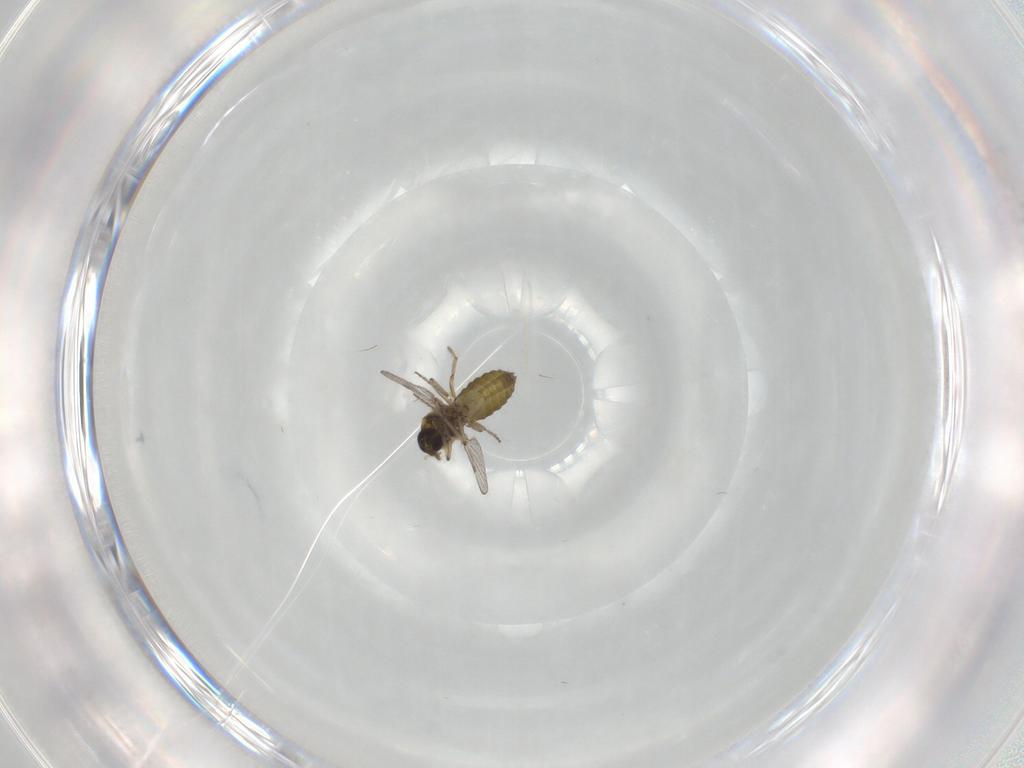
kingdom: Animalia
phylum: Arthropoda
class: Insecta
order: Diptera
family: Ceratopogonidae
